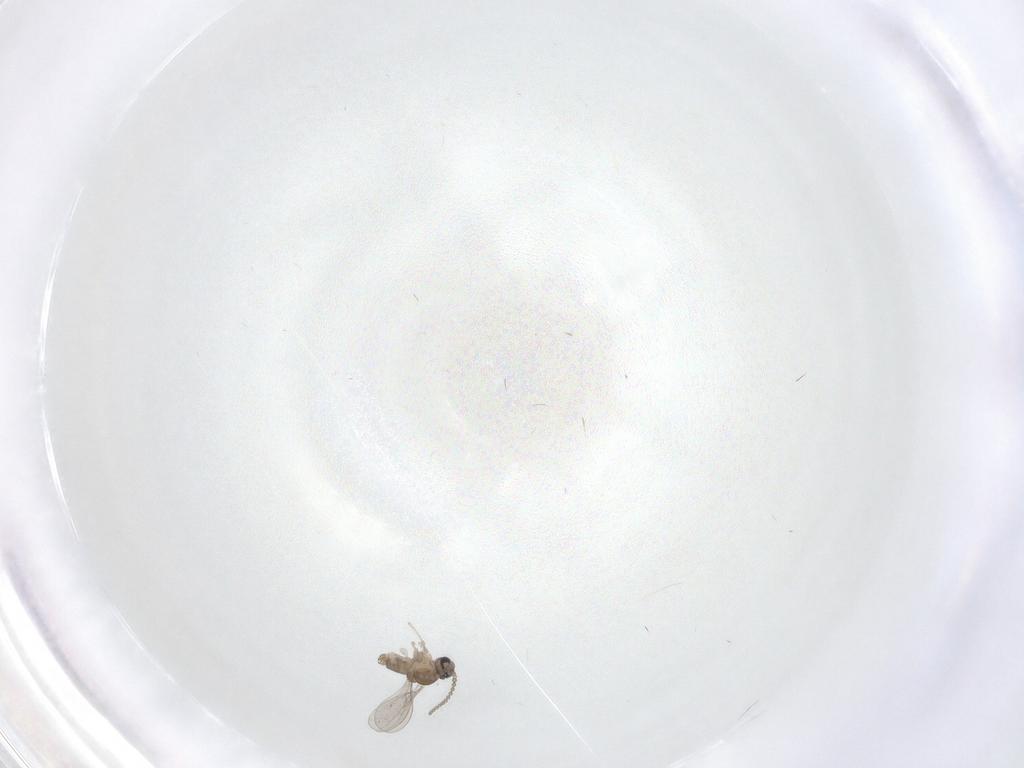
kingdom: Animalia
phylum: Arthropoda
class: Insecta
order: Diptera
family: Cecidomyiidae
